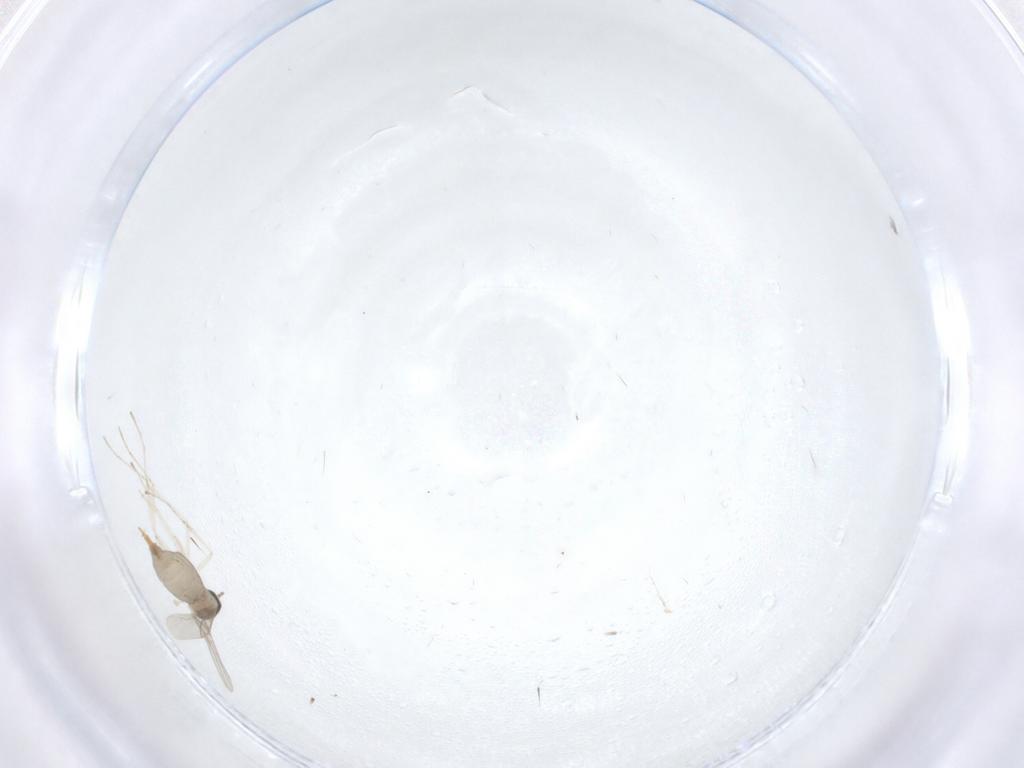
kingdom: Animalia
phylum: Arthropoda
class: Insecta
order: Diptera
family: Cecidomyiidae
